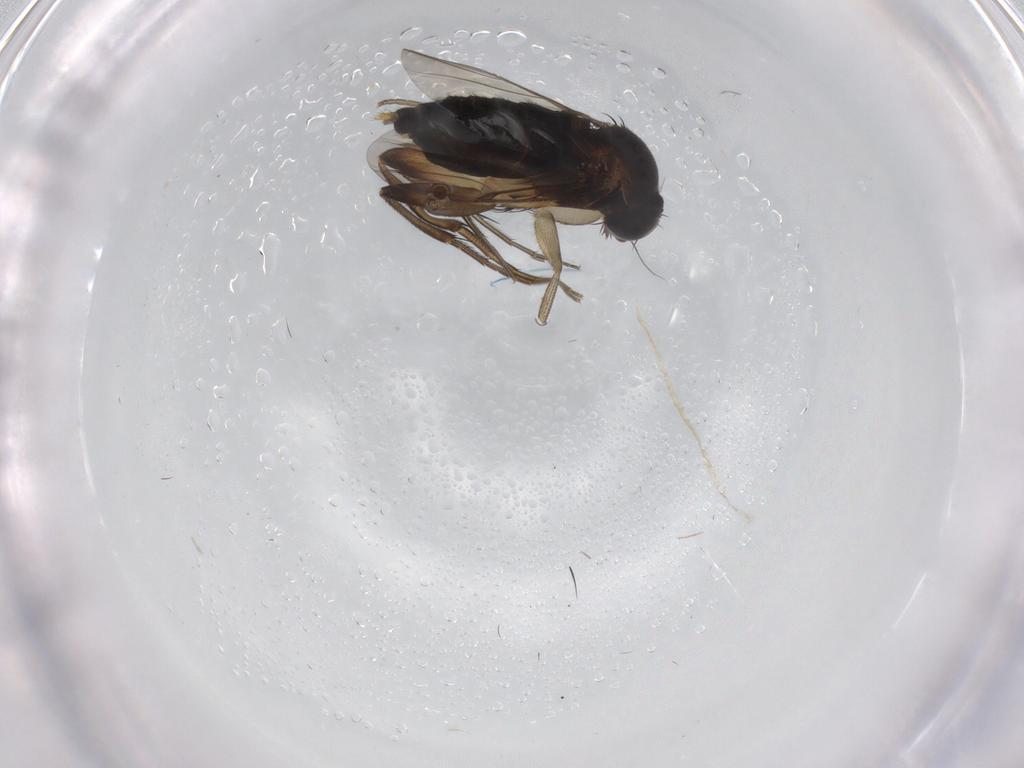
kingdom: Animalia
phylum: Arthropoda
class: Insecta
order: Diptera
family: Phoridae
